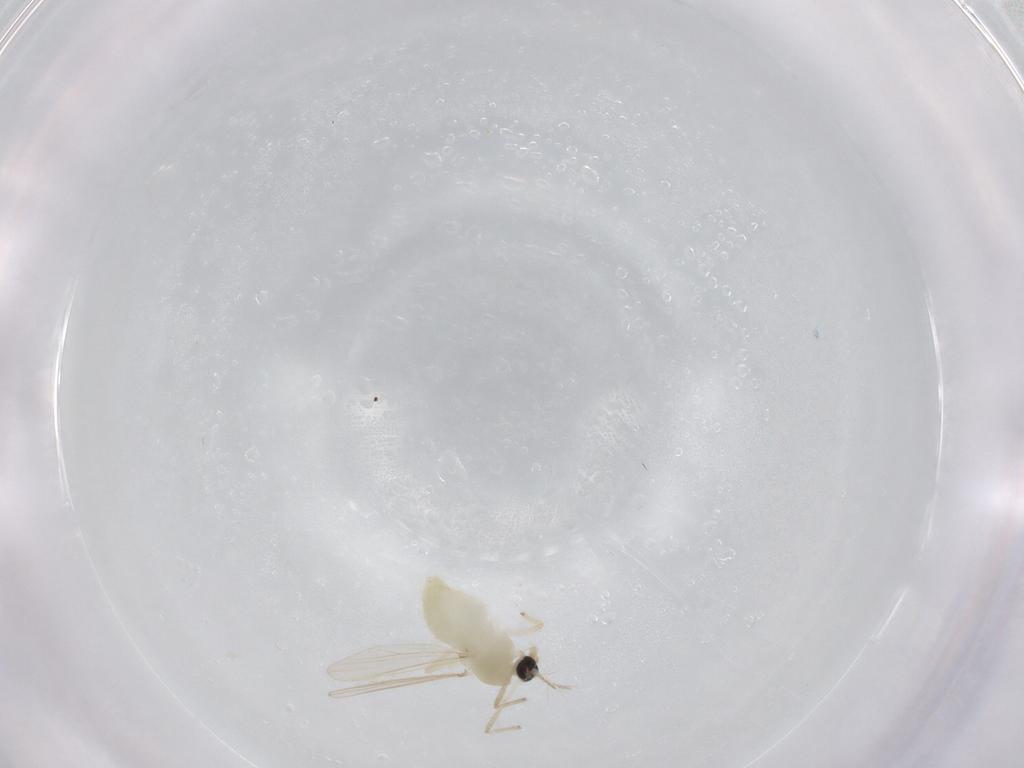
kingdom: Animalia
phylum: Arthropoda
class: Insecta
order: Diptera
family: Chironomidae
